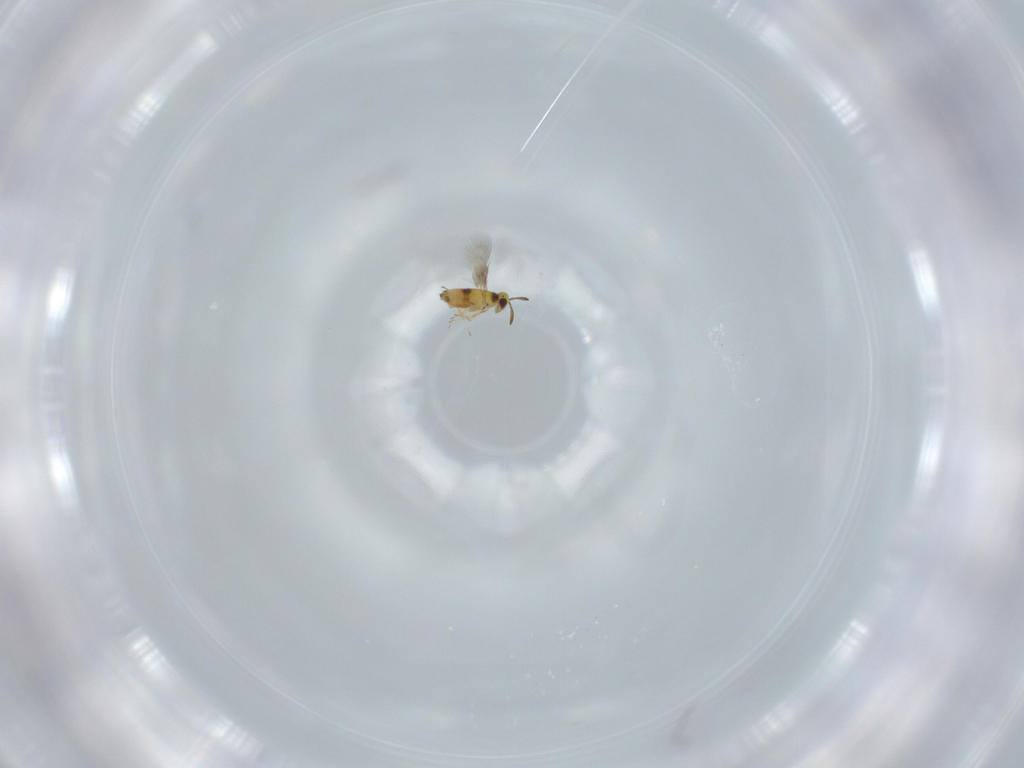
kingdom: Animalia
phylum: Arthropoda
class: Insecta
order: Hymenoptera
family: Signiphoridae
